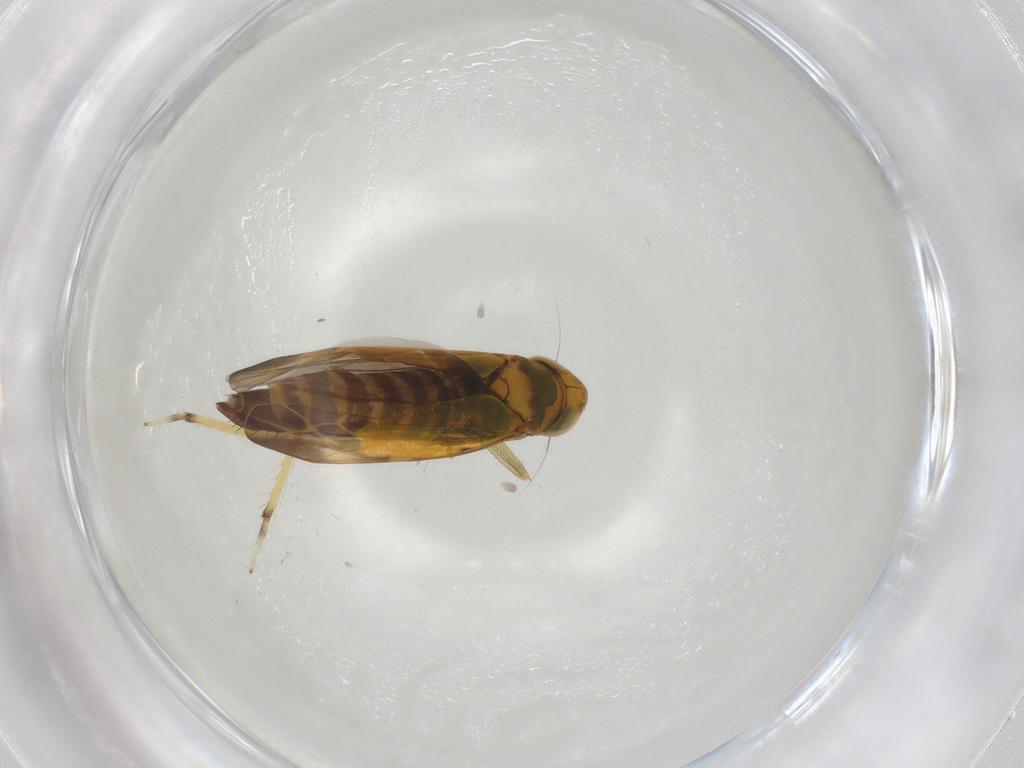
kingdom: Animalia
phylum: Arthropoda
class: Insecta
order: Hemiptera
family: Cicadellidae
